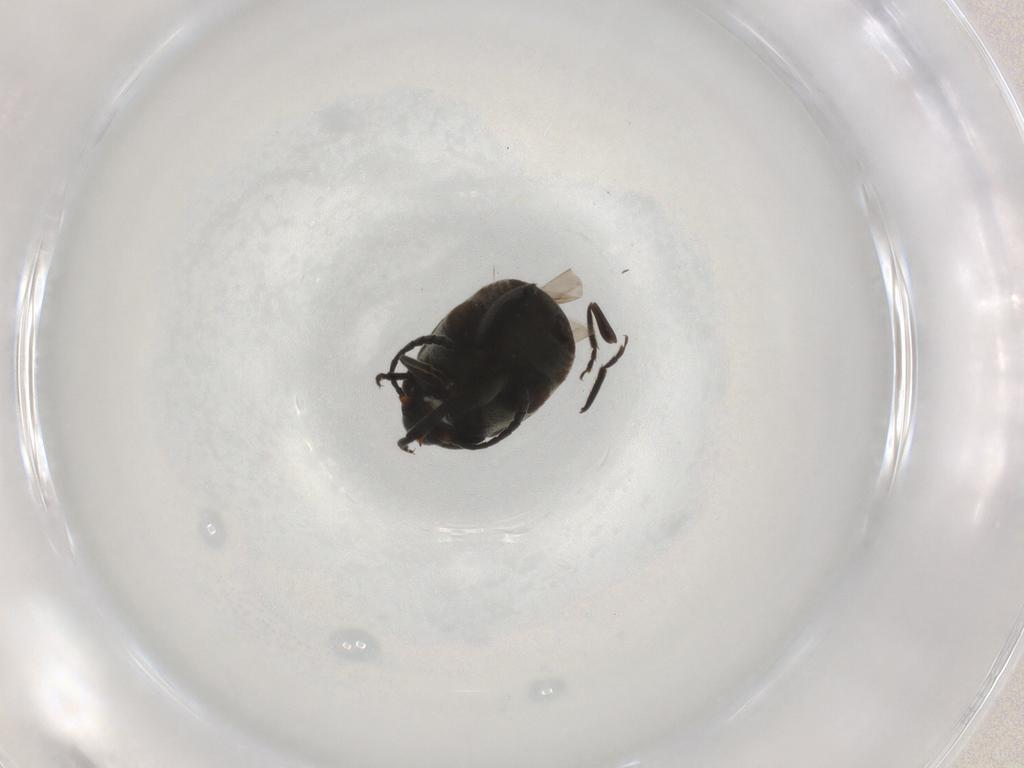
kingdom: Animalia
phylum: Arthropoda
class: Insecta
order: Coleoptera
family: Chrysomelidae
